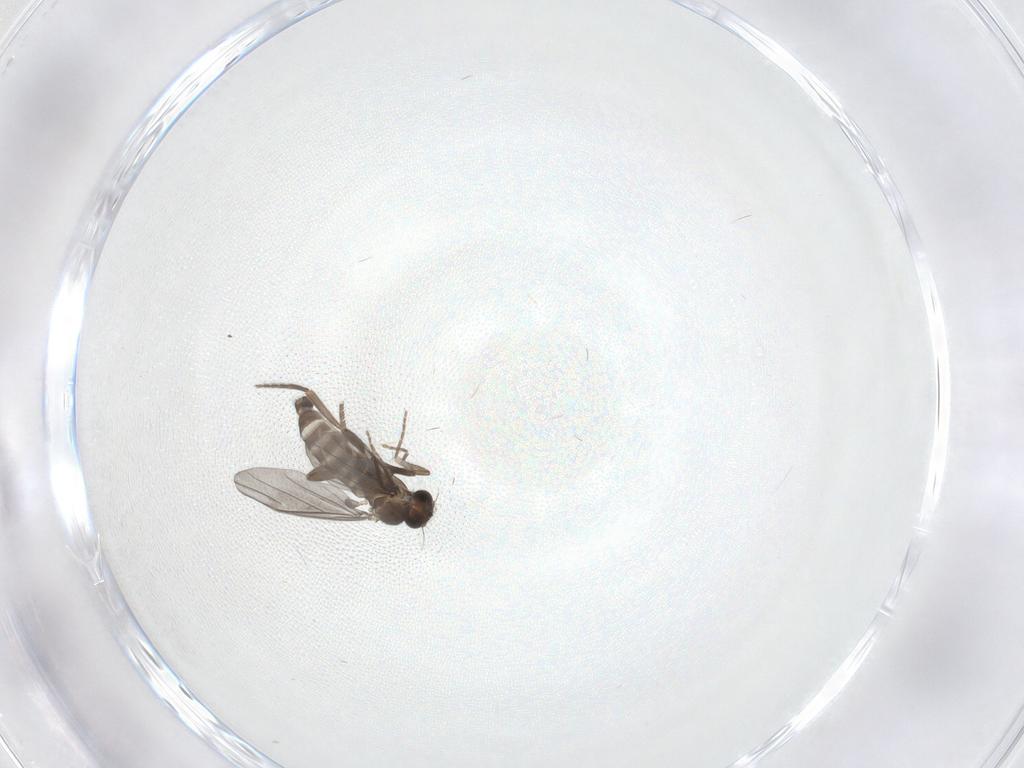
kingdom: Animalia
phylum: Arthropoda
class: Insecta
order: Diptera
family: Phoridae
